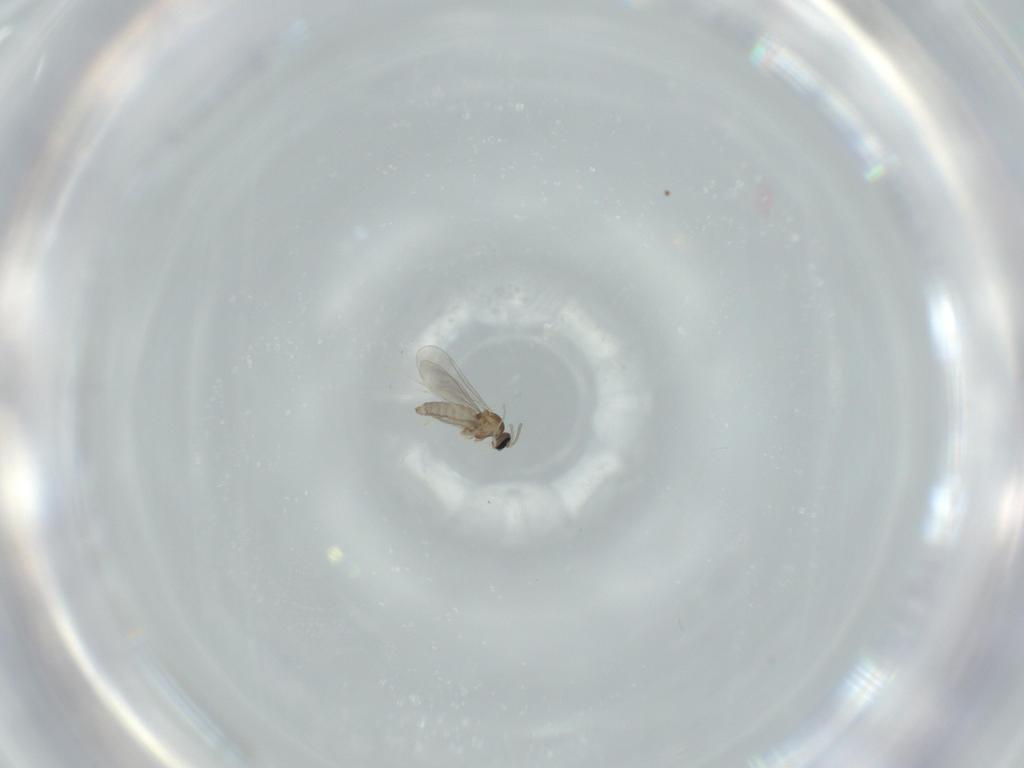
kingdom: Animalia
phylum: Arthropoda
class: Insecta
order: Diptera
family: Cecidomyiidae
